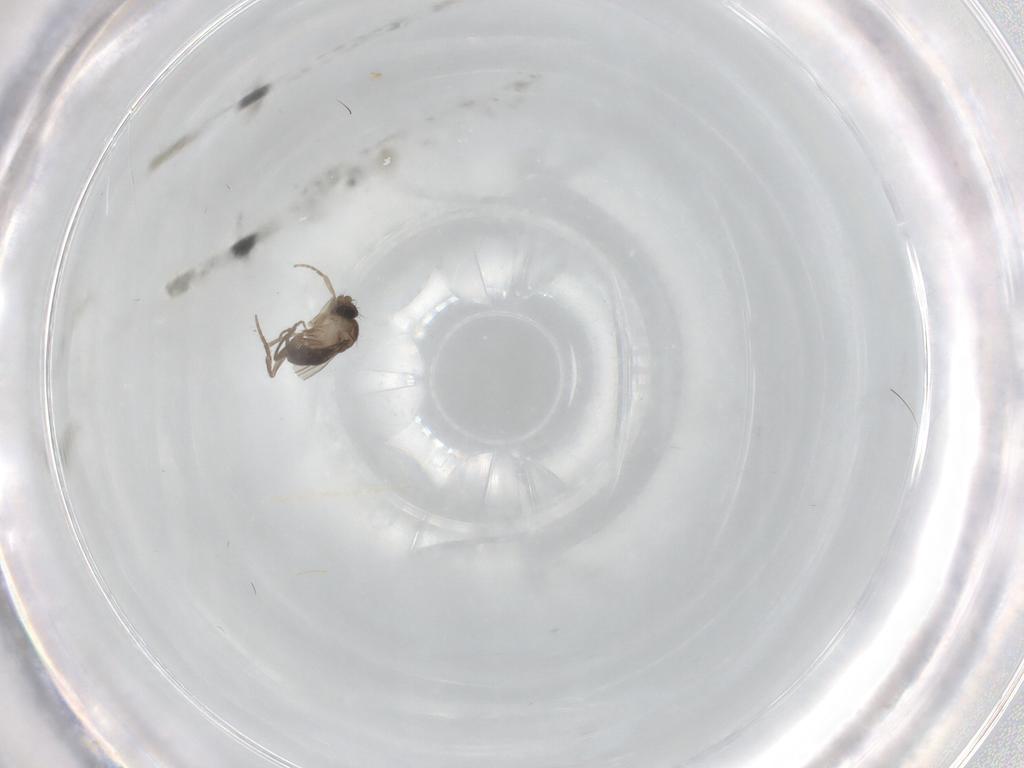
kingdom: Animalia
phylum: Arthropoda
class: Insecta
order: Diptera
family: Phoridae
